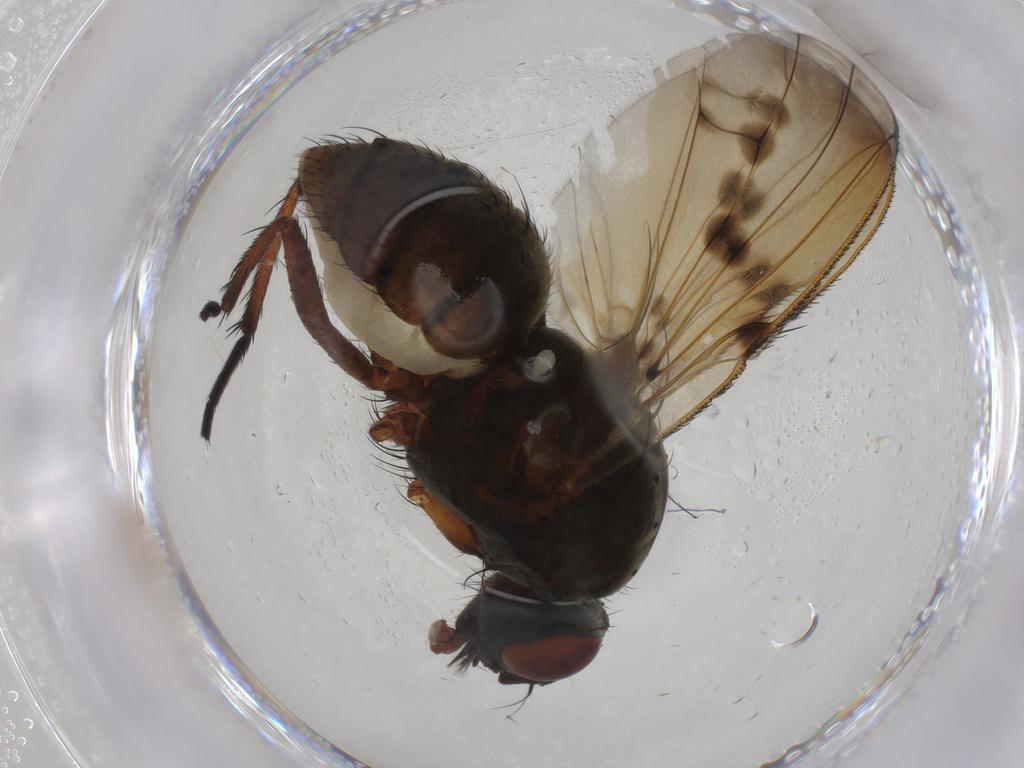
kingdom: Animalia
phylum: Arthropoda
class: Insecta
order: Diptera
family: Anthomyiidae
